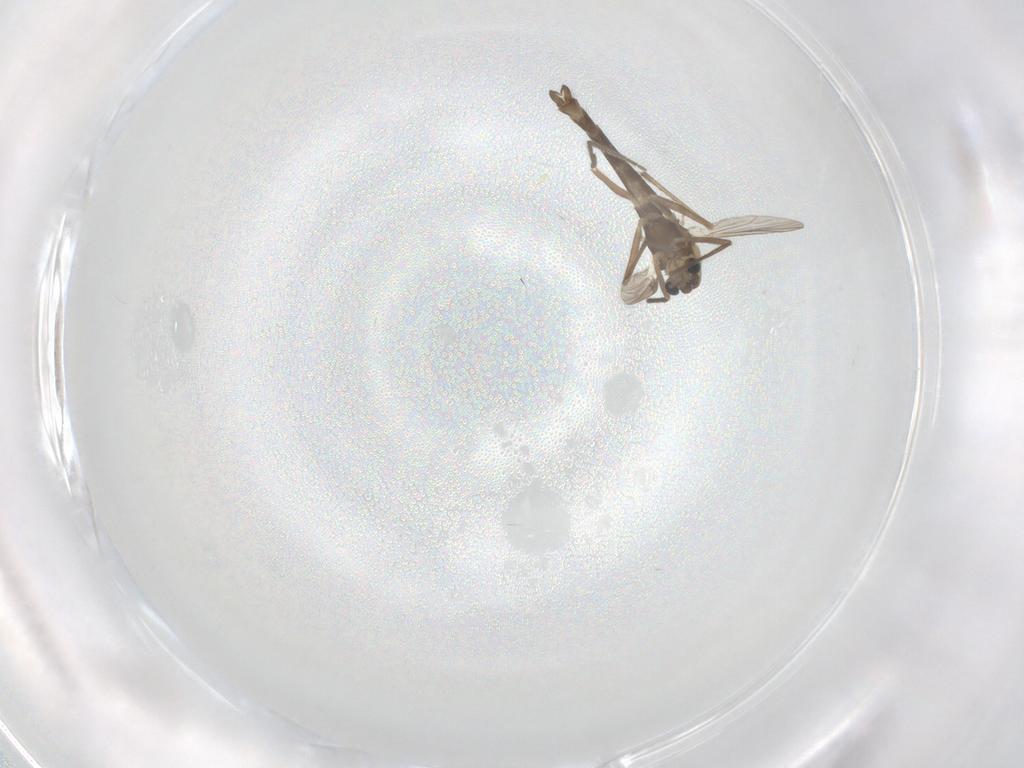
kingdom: Animalia
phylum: Arthropoda
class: Insecta
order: Diptera
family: Chironomidae
